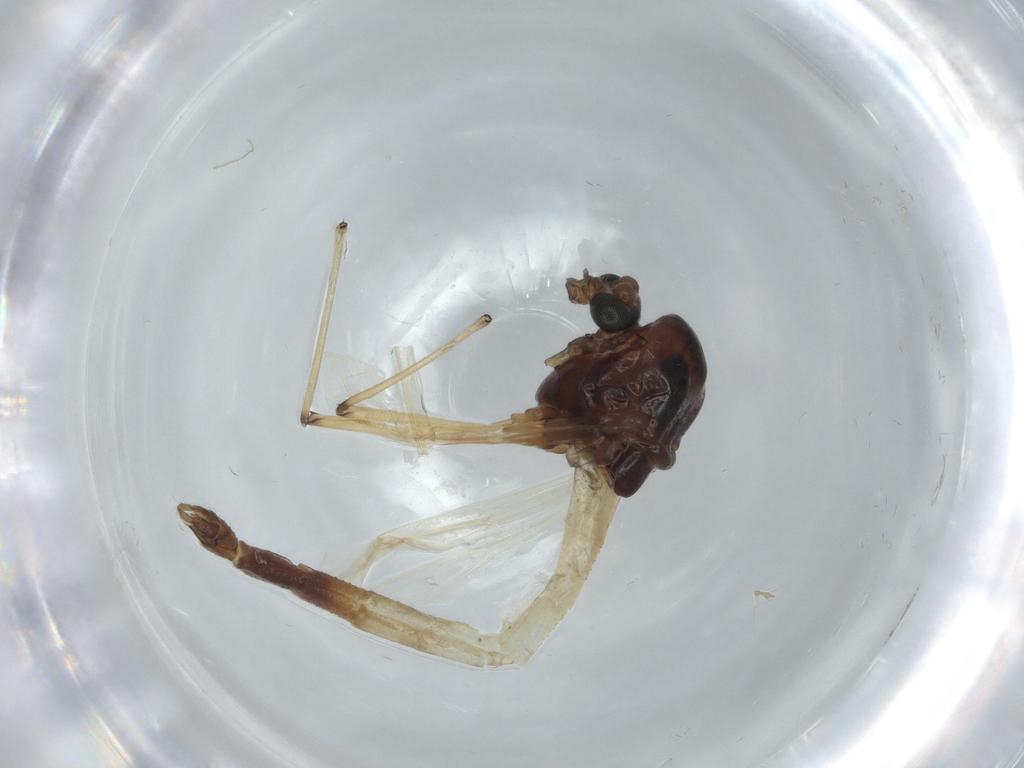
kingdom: Animalia
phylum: Arthropoda
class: Insecta
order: Diptera
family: Chironomidae
